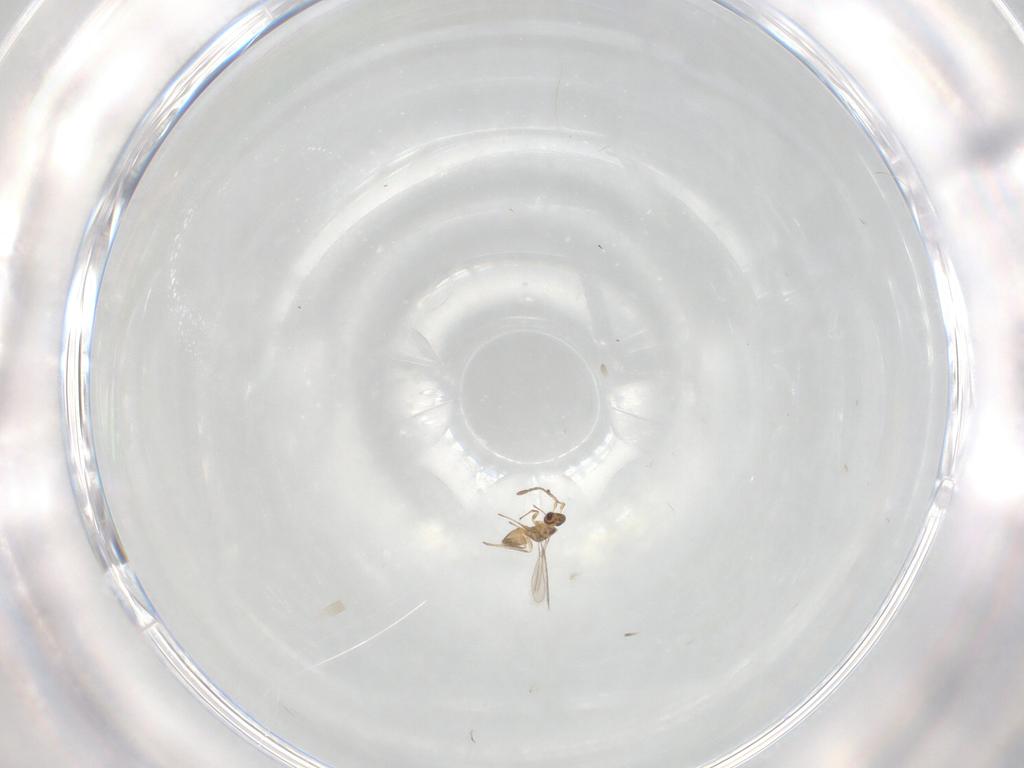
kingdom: Animalia
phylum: Arthropoda
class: Insecta
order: Hymenoptera
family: Mymaridae
